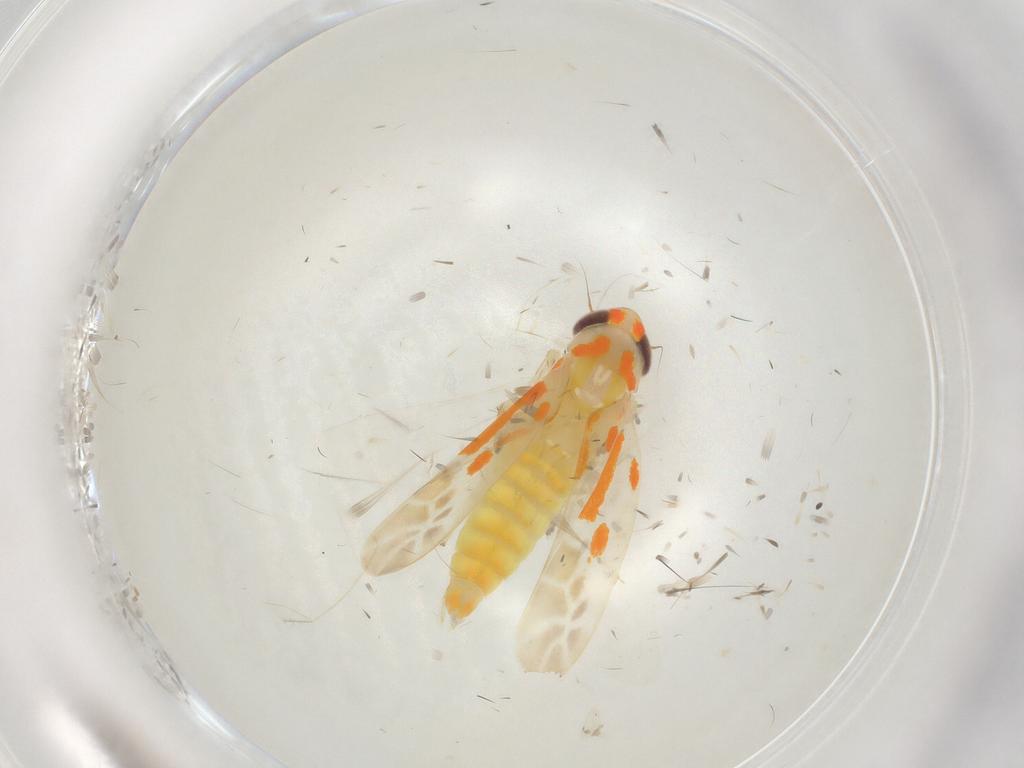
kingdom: Animalia
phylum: Arthropoda
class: Insecta
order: Hemiptera
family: Cicadellidae
